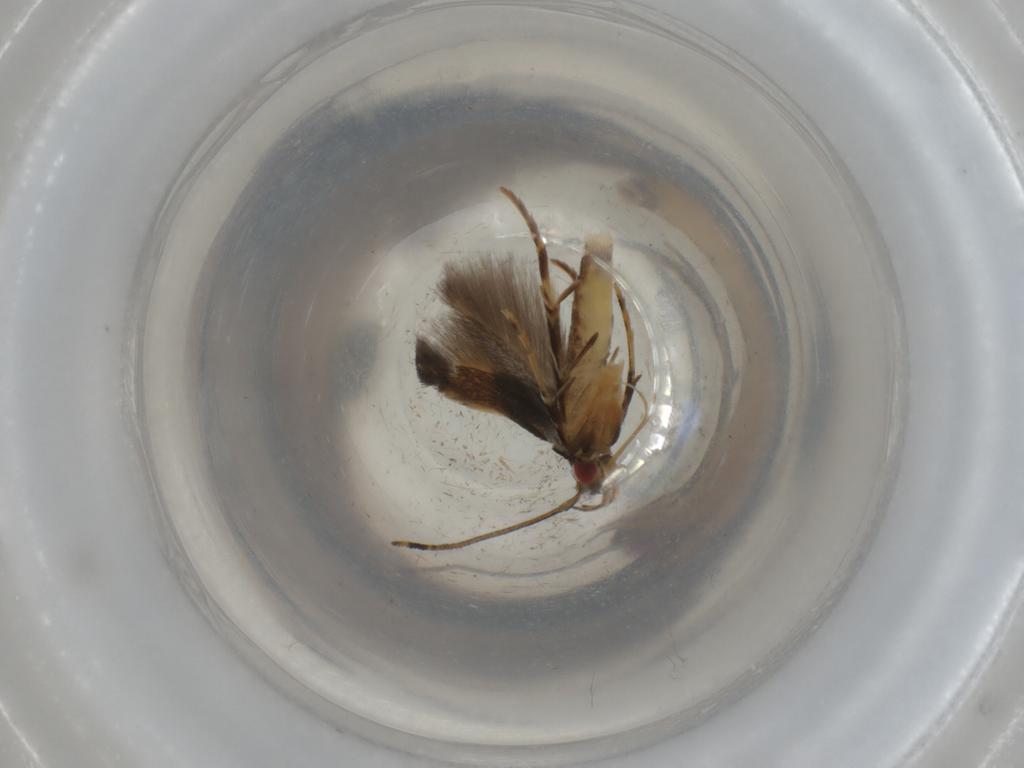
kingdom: Animalia
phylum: Arthropoda
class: Insecta
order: Lepidoptera
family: Cosmopterigidae
